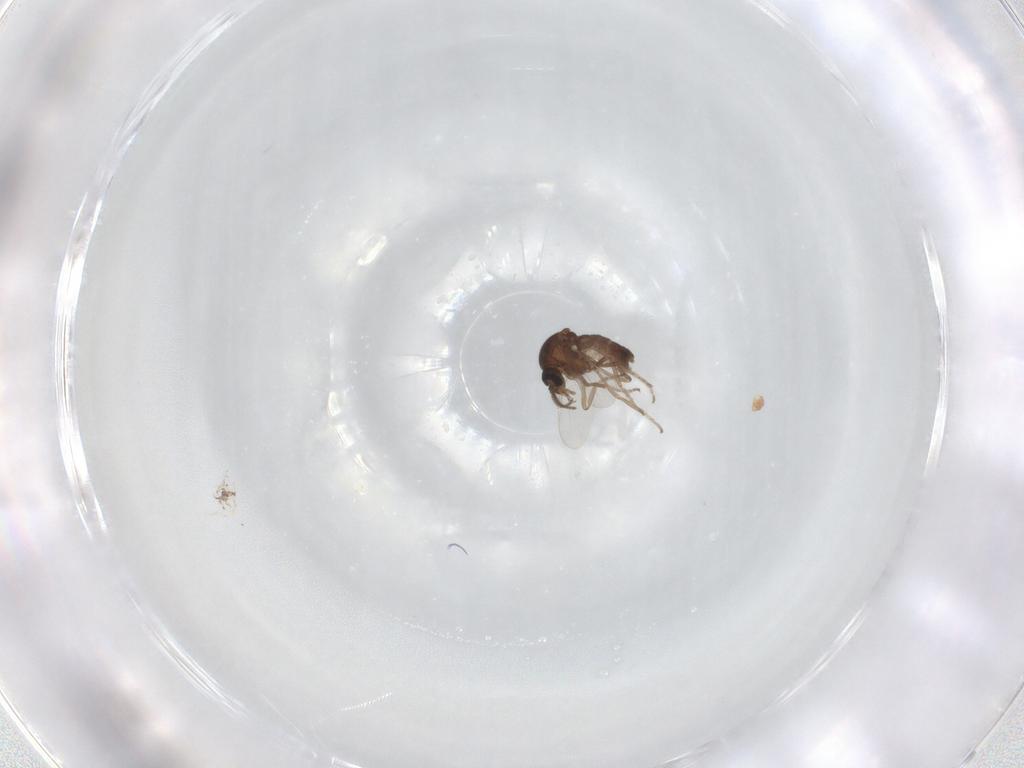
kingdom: Animalia
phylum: Arthropoda
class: Insecta
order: Diptera
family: Ceratopogonidae
